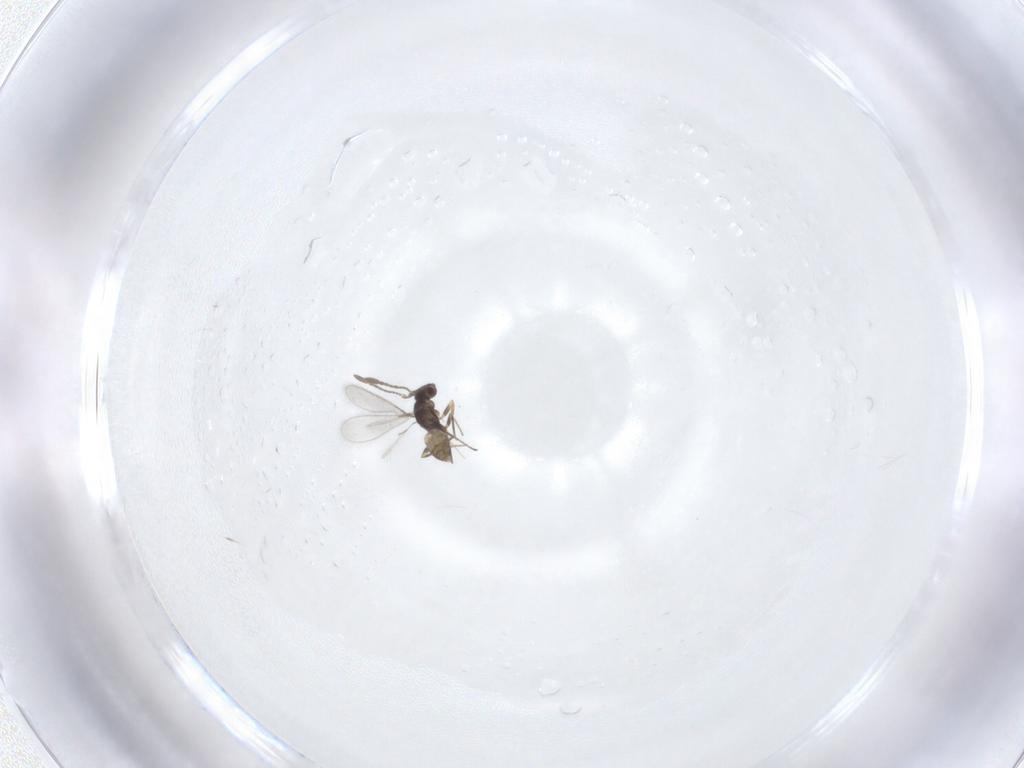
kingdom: Animalia
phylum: Arthropoda
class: Insecta
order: Hymenoptera
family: Mymaridae
